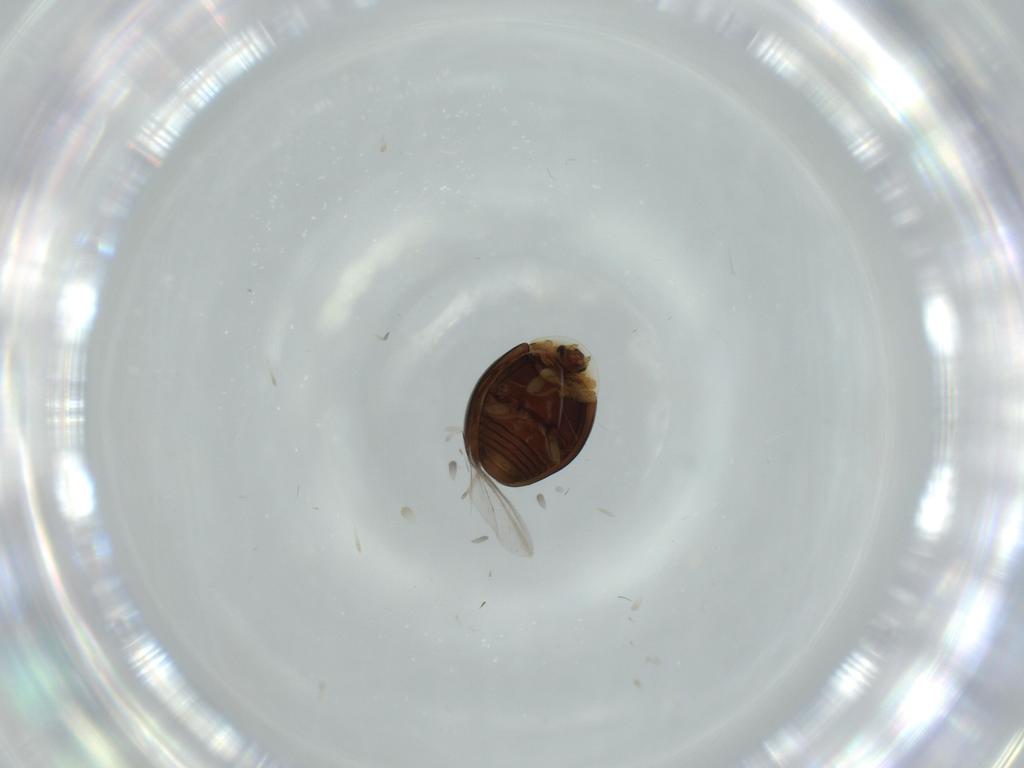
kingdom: Animalia
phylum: Arthropoda
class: Insecta
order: Coleoptera
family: Corylophidae
